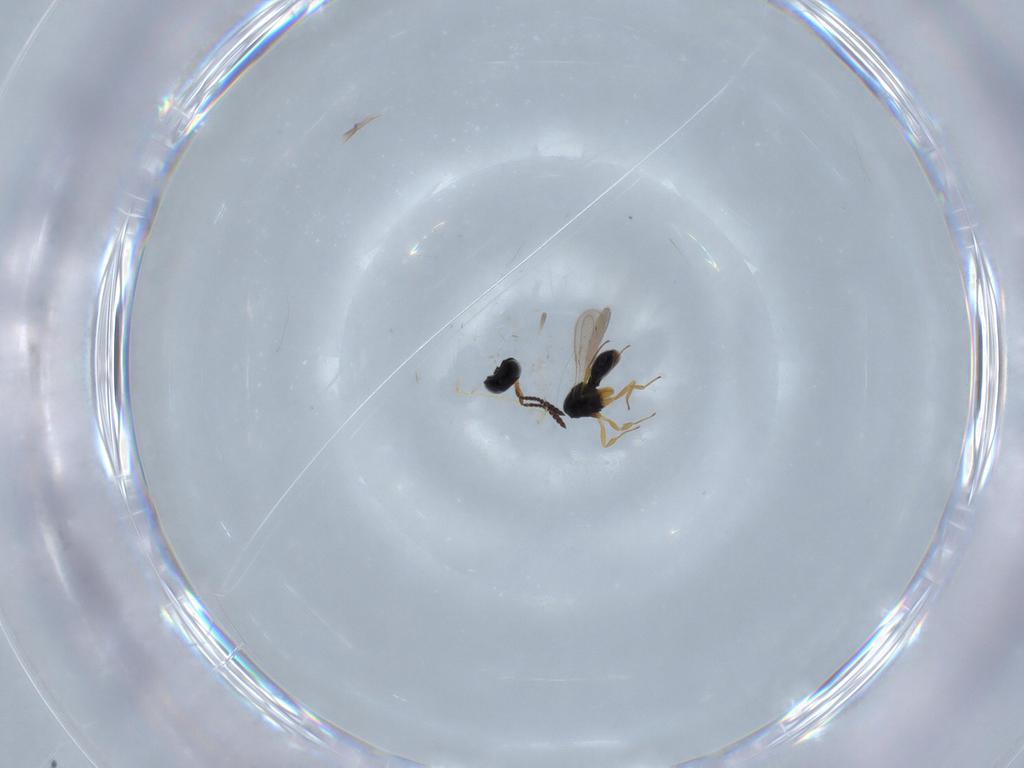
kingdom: Animalia
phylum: Arthropoda
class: Insecta
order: Hymenoptera
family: Scelionidae
